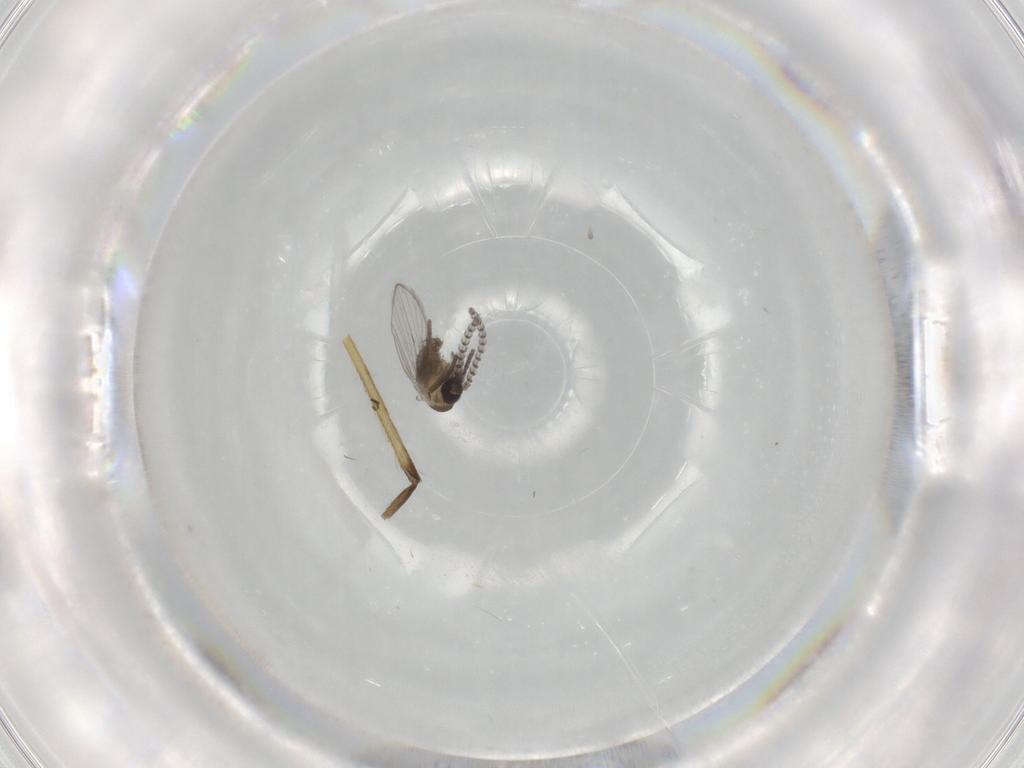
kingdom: Animalia
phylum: Arthropoda
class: Insecta
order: Diptera
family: Psychodidae
